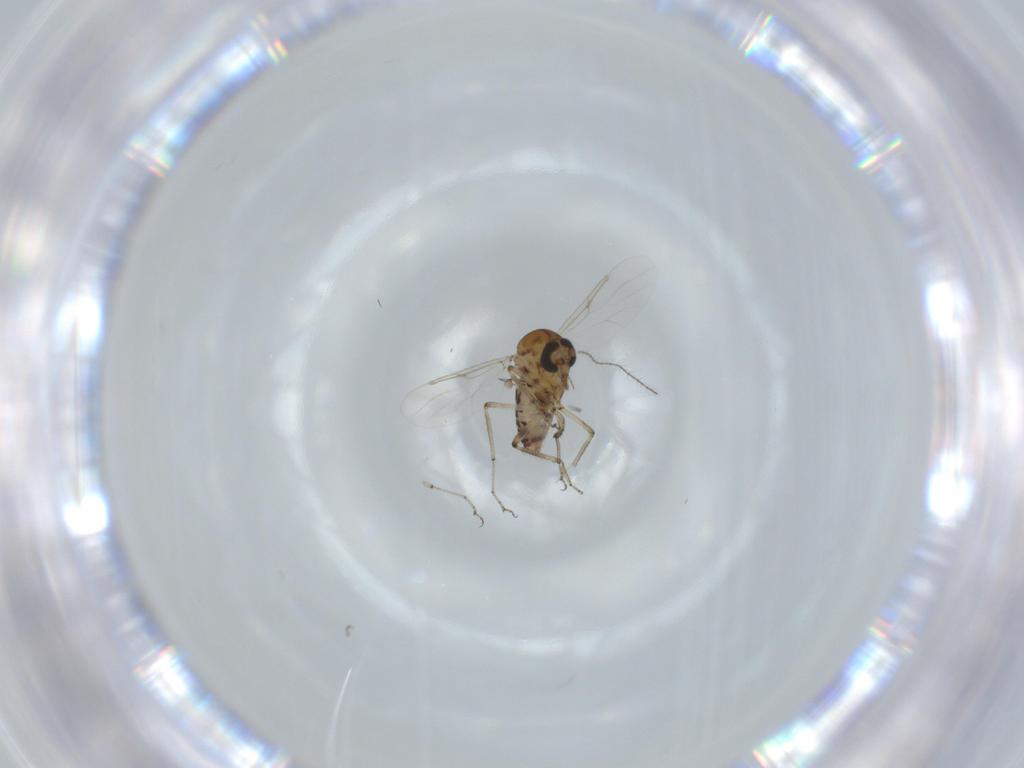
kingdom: Animalia
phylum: Arthropoda
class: Insecta
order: Diptera
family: Ceratopogonidae
